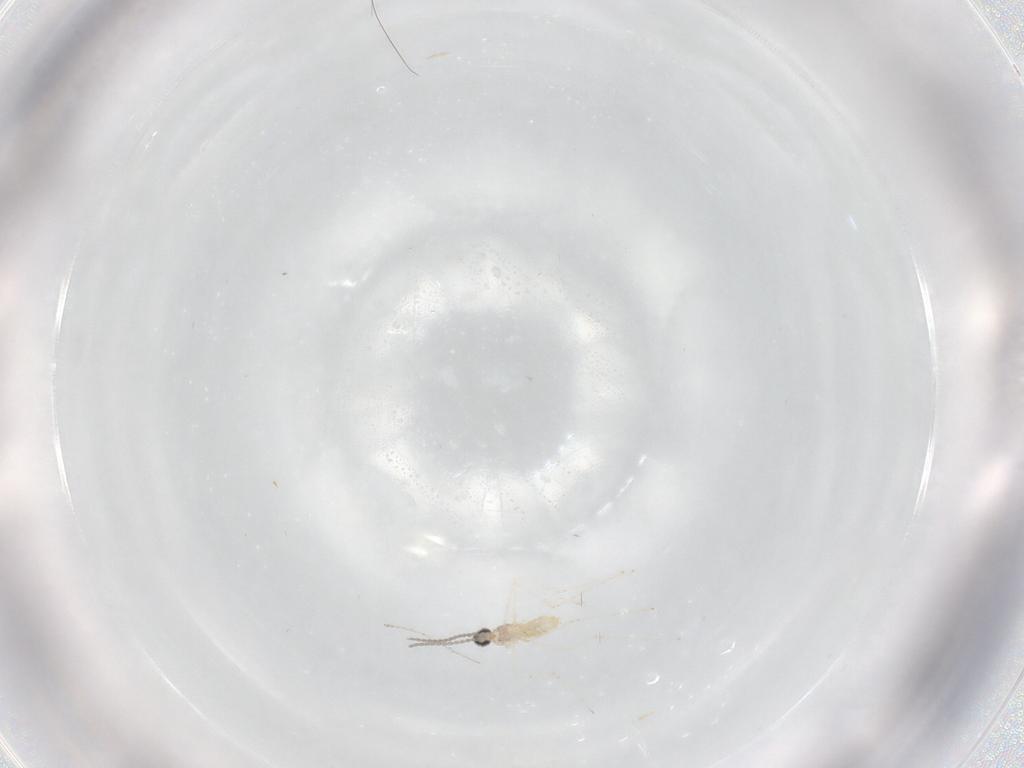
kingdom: Animalia
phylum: Arthropoda
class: Insecta
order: Diptera
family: Cecidomyiidae
